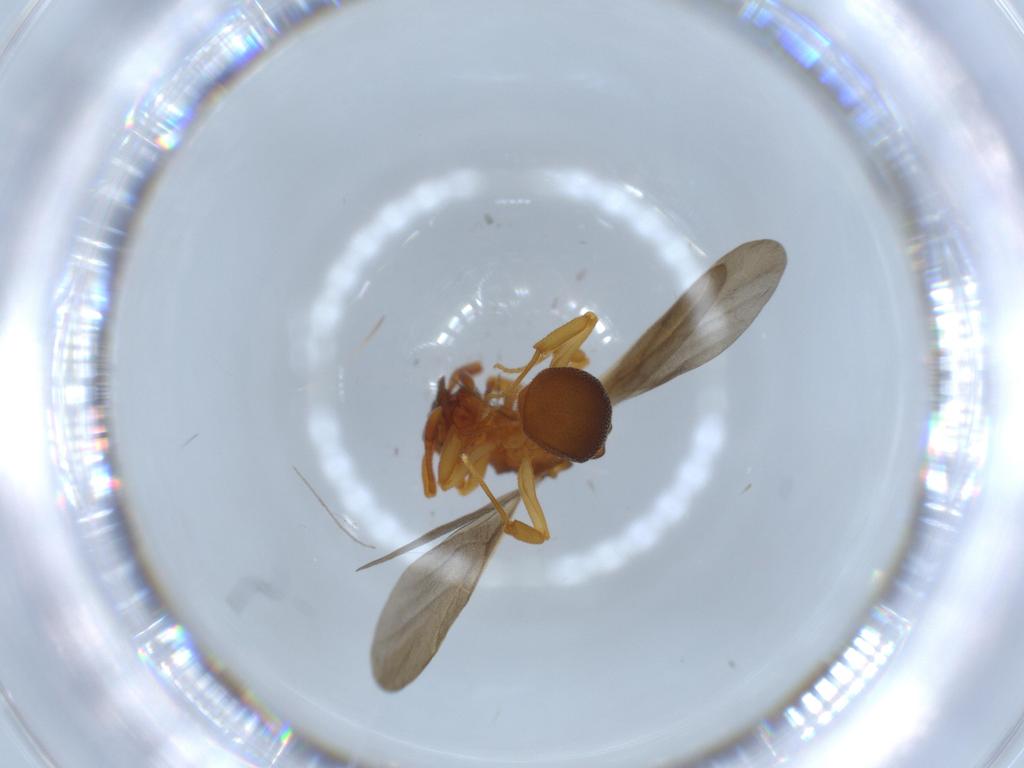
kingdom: Animalia
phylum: Arthropoda
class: Insecta
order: Hymenoptera
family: Formicidae
